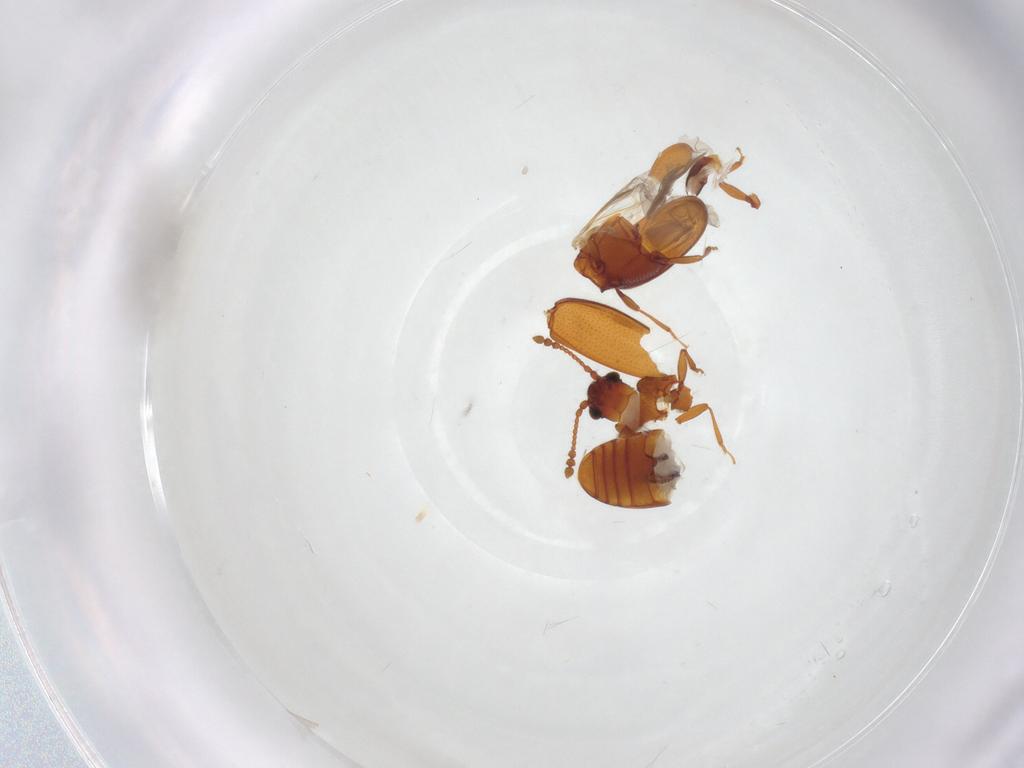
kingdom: Animalia
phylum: Arthropoda
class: Insecta
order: Coleoptera
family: Cryptophagidae
